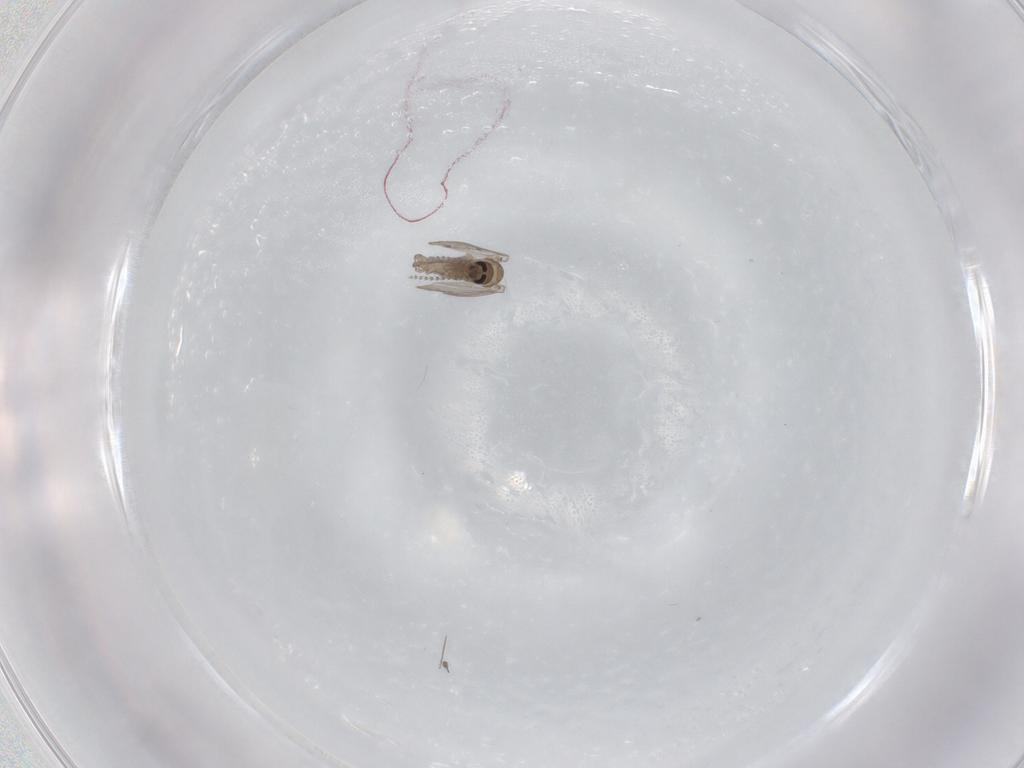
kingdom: Animalia
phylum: Arthropoda
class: Insecta
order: Diptera
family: Psychodidae
